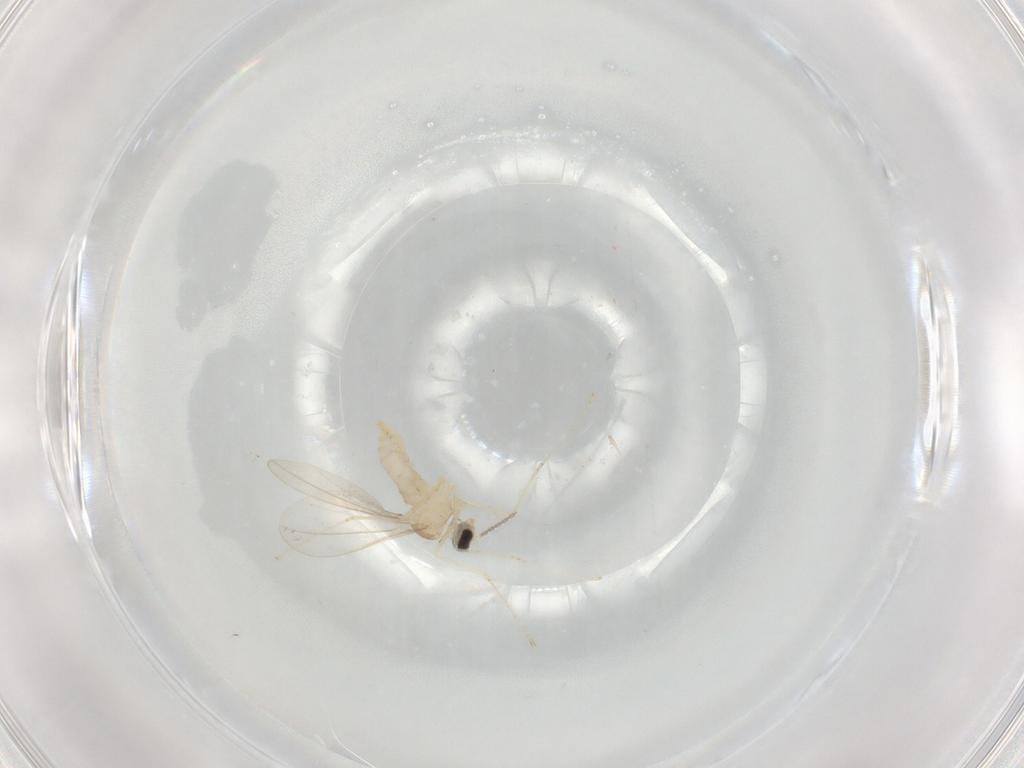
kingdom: Animalia
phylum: Arthropoda
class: Insecta
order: Diptera
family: Cecidomyiidae
